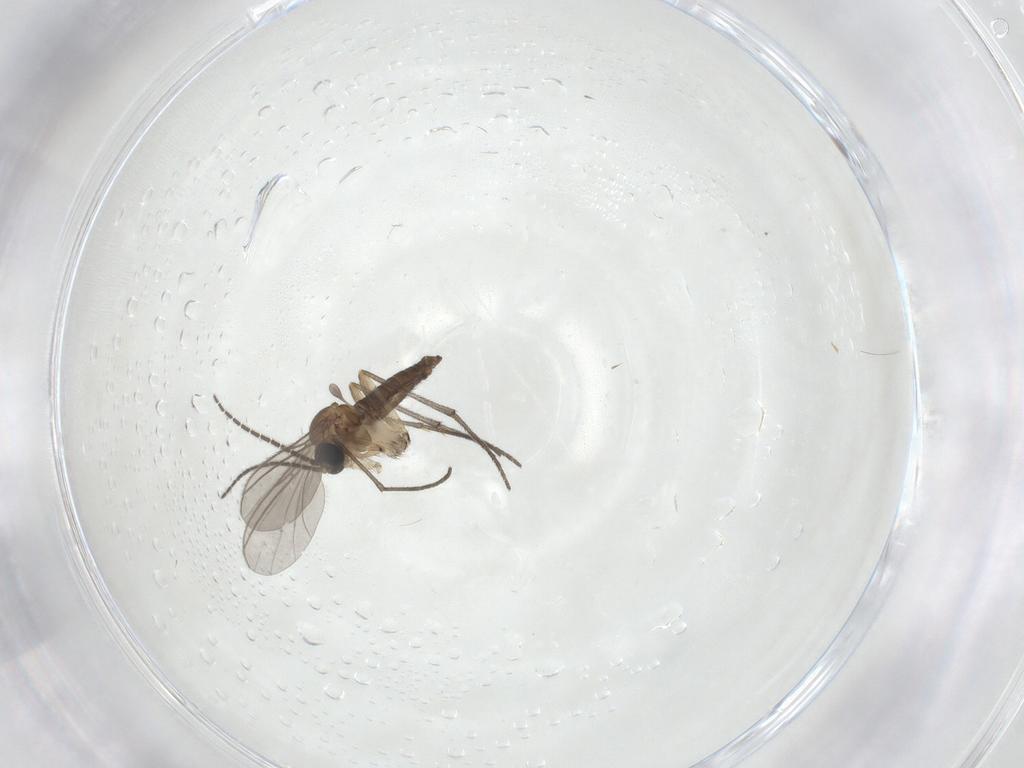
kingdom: Animalia
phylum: Arthropoda
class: Insecta
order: Diptera
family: Sciaridae
